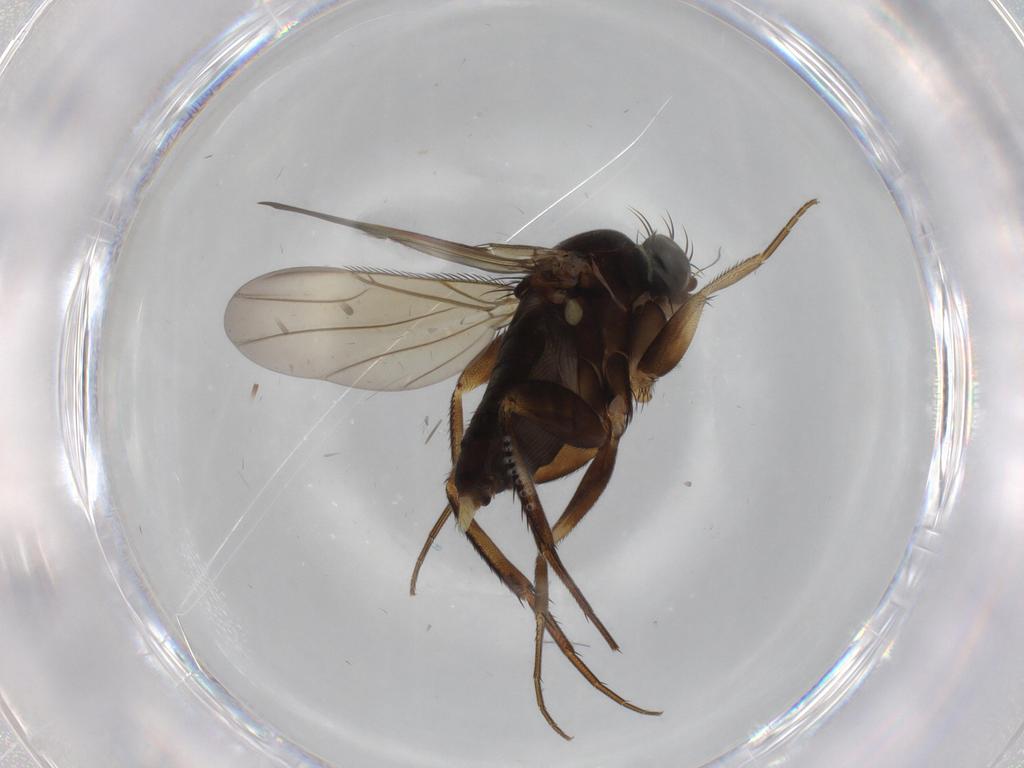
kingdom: Animalia
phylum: Arthropoda
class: Insecta
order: Diptera
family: Phoridae
